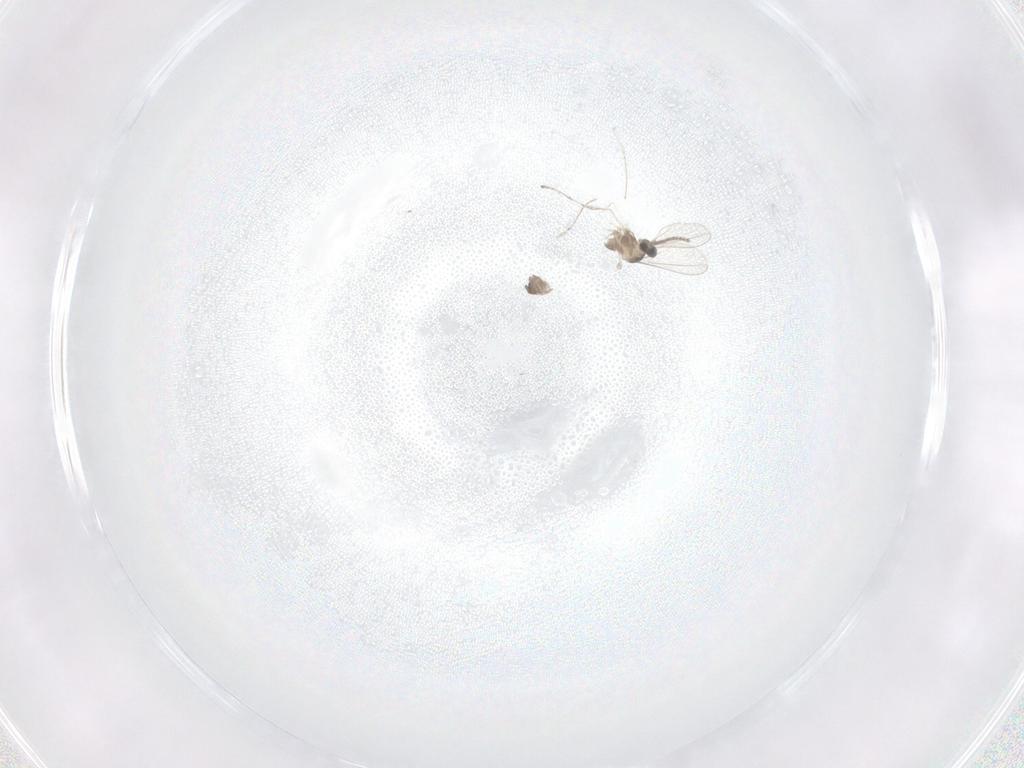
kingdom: Animalia
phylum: Arthropoda
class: Insecta
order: Diptera
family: Cecidomyiidae
